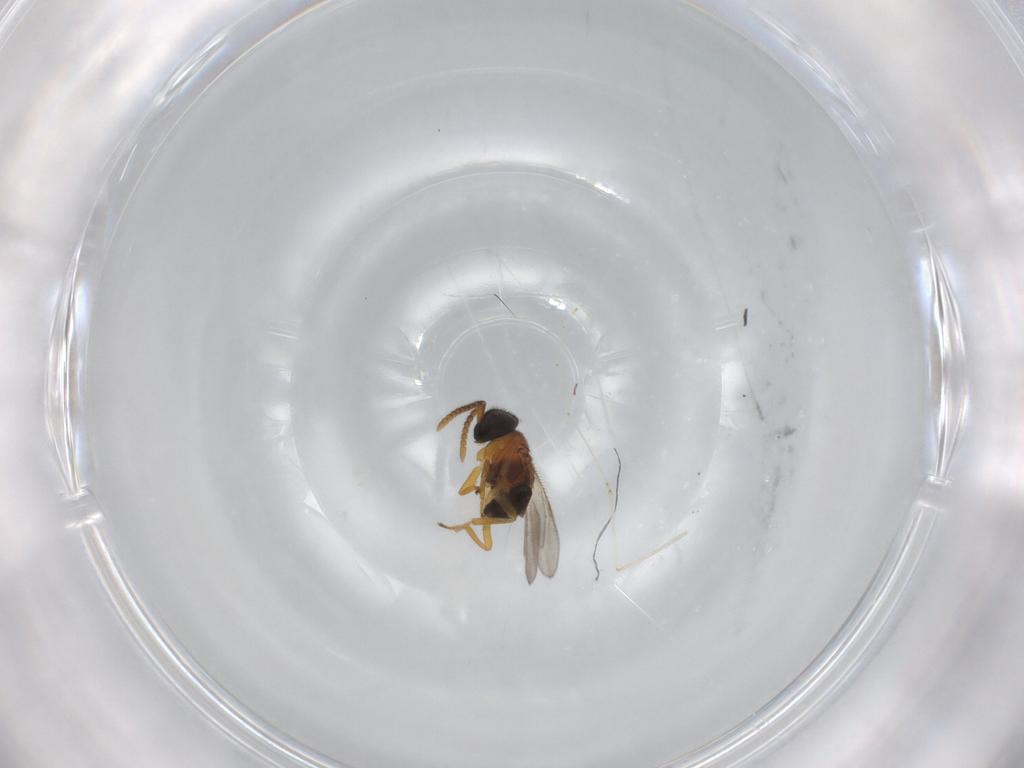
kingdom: Animalia
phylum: Arthropoda
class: Insecta
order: Hymenoptera
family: Encyrtidae
